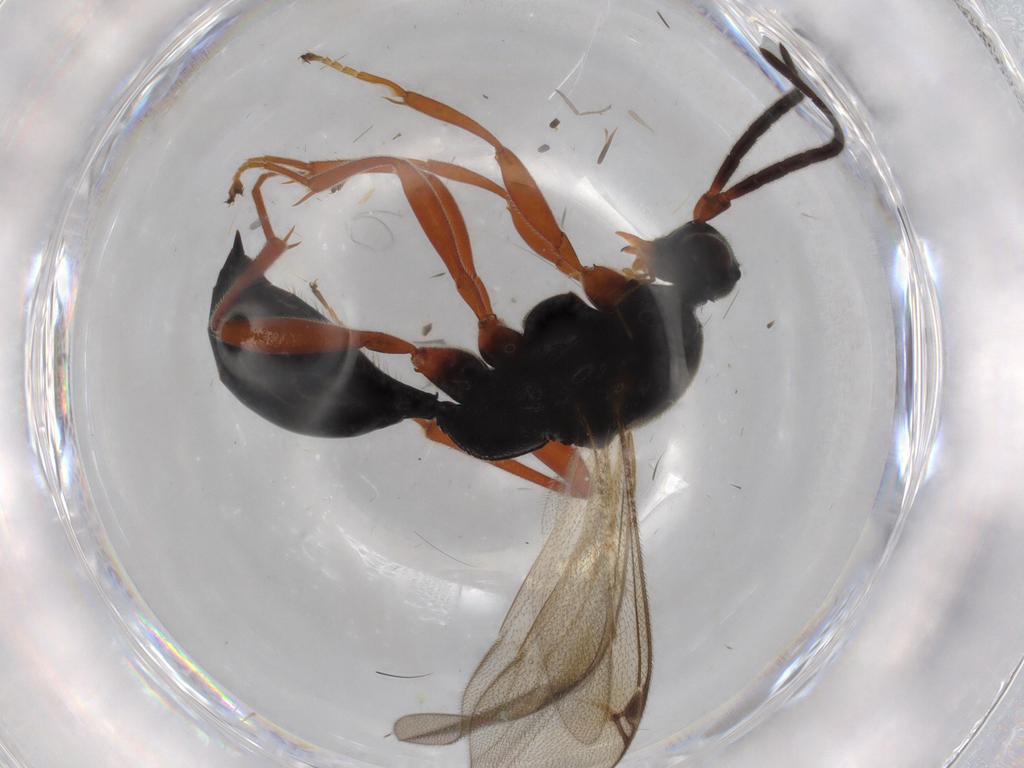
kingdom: Animalia
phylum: Arthropoda
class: Insecta
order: Hymenoptera
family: Proctotrupidae
